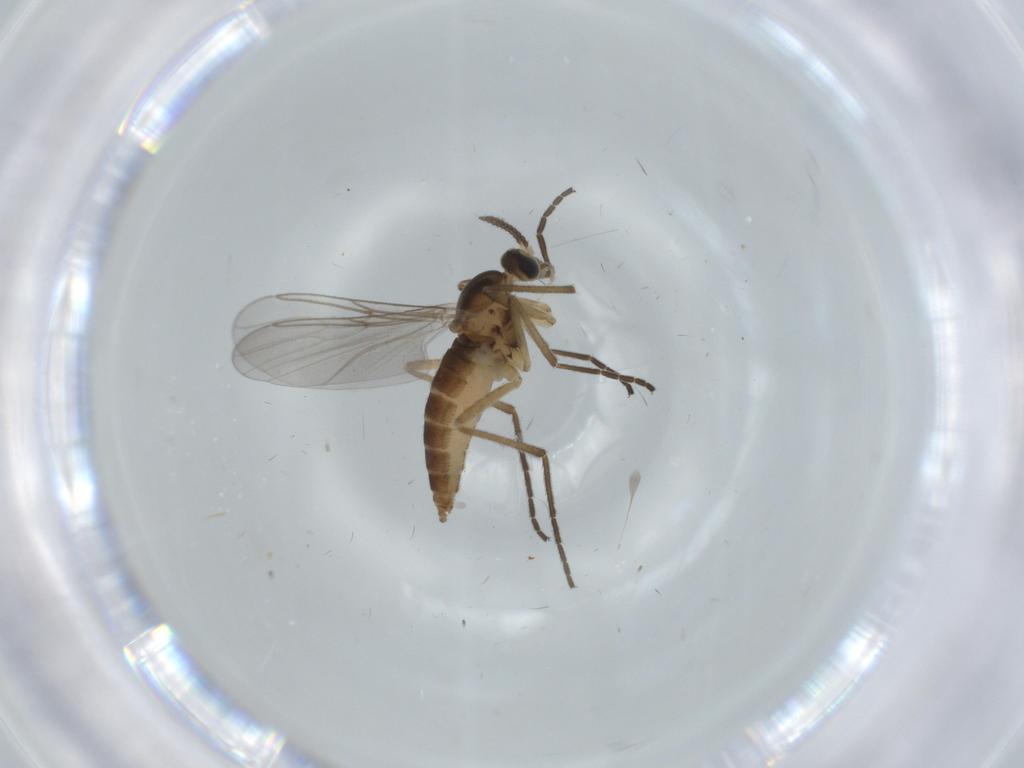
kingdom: Animalia
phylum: Arthropoda
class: Insecta
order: Diptera
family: Cecidomyiidae
